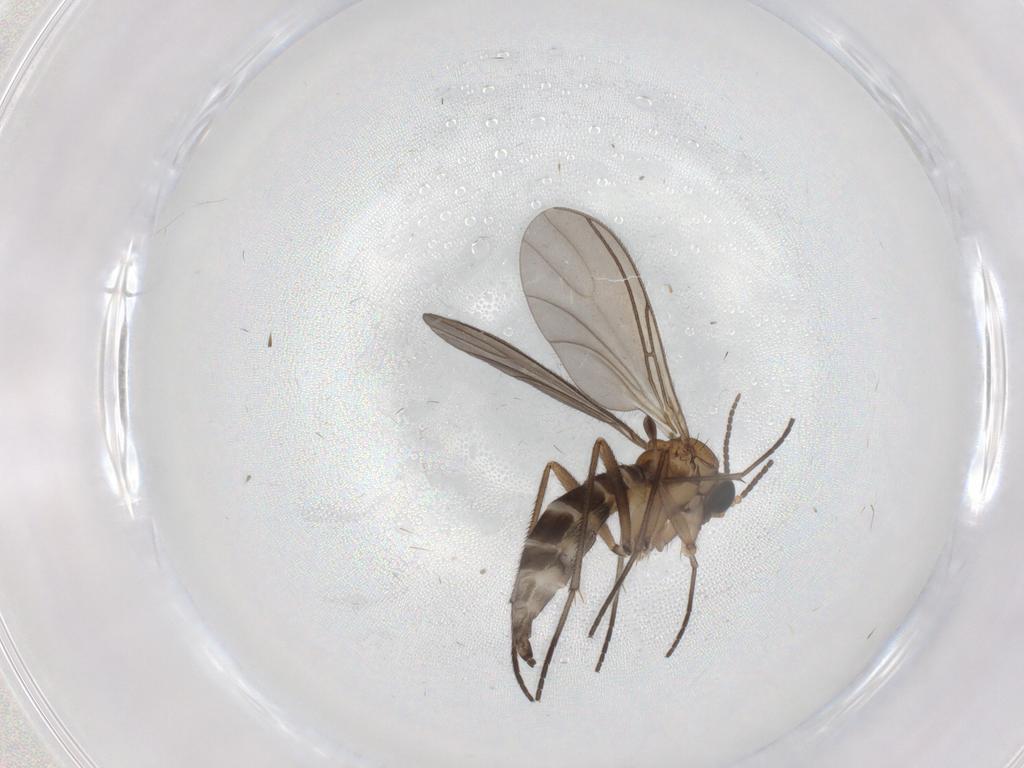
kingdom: Animalia
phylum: Arthropoda
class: Insecta
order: Diptera
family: Sciaridae
